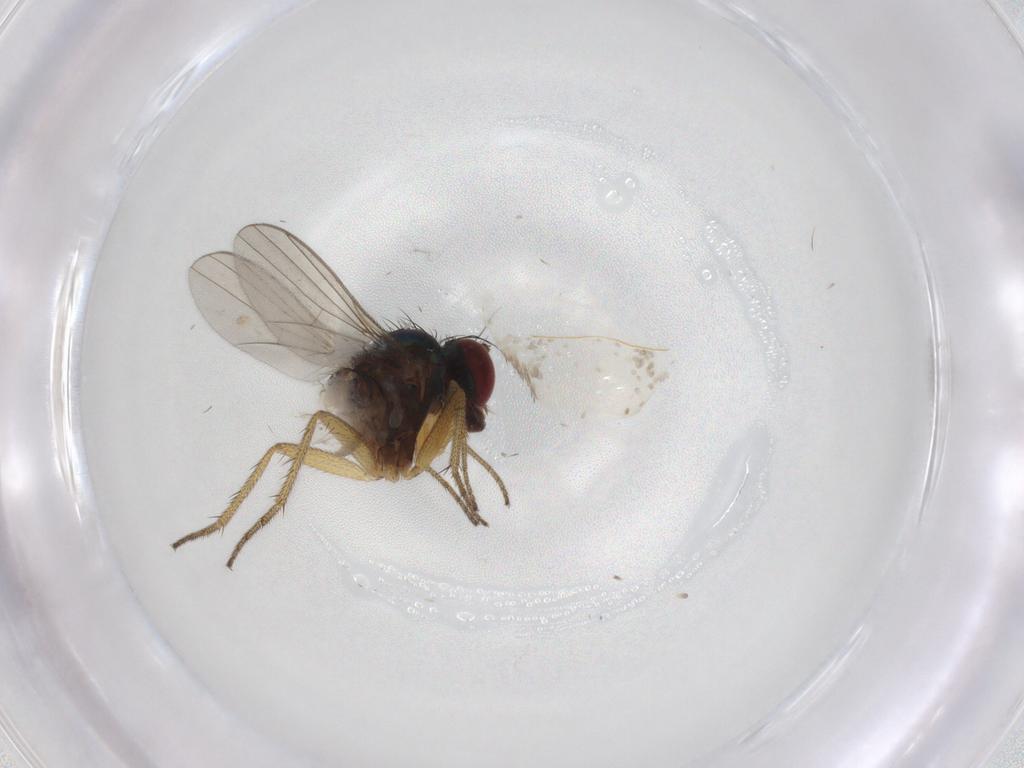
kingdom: Animalia
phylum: Arthropoda
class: Insecta
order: Diptera
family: Micropezidae
